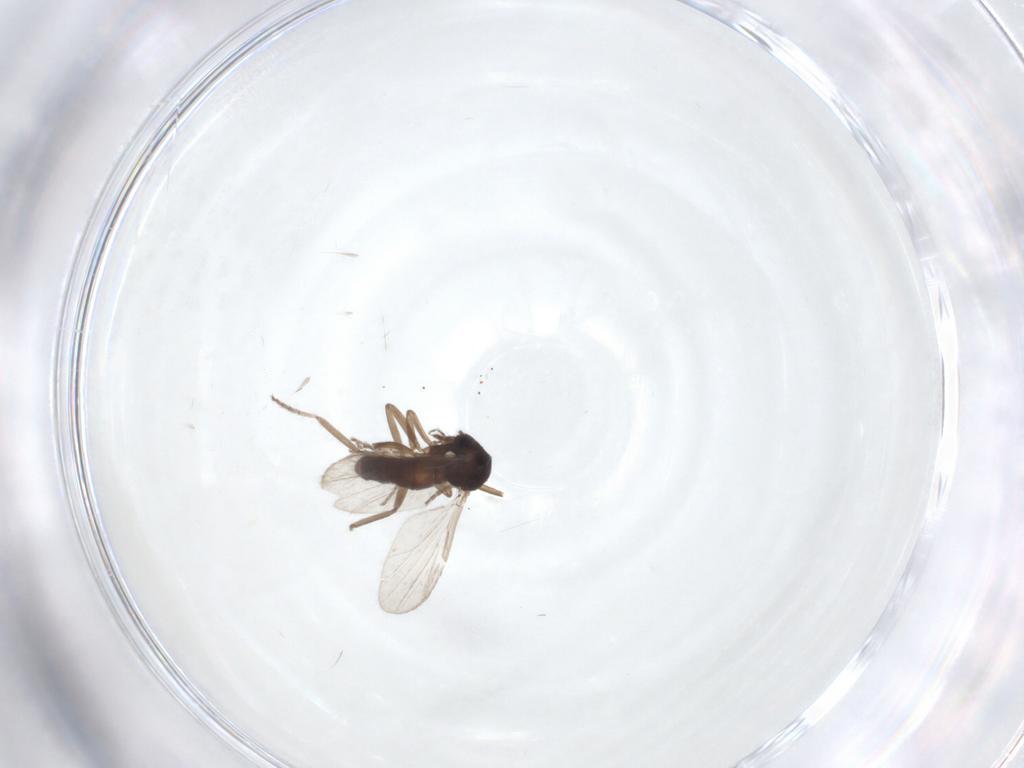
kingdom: Animalia
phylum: Arthropoda
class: Insecta
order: Diptera
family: Ceratopogonidae
